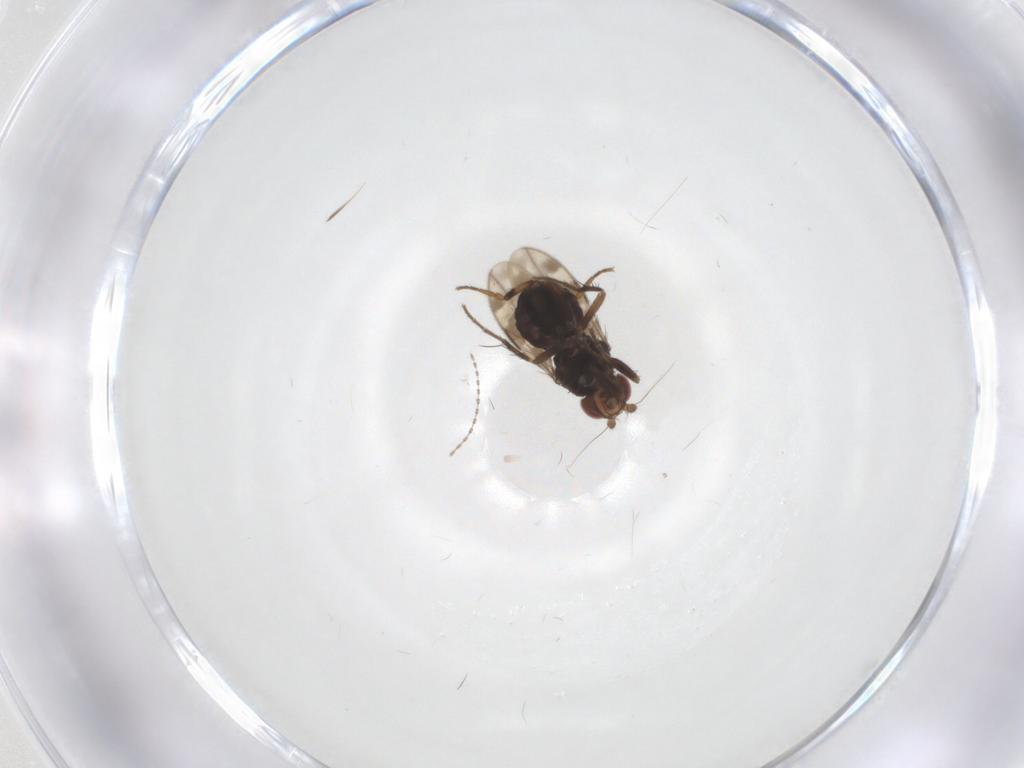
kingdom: Animalia
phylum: Arthropoda
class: Insecta
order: Diptera
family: Sphaeroceridae
